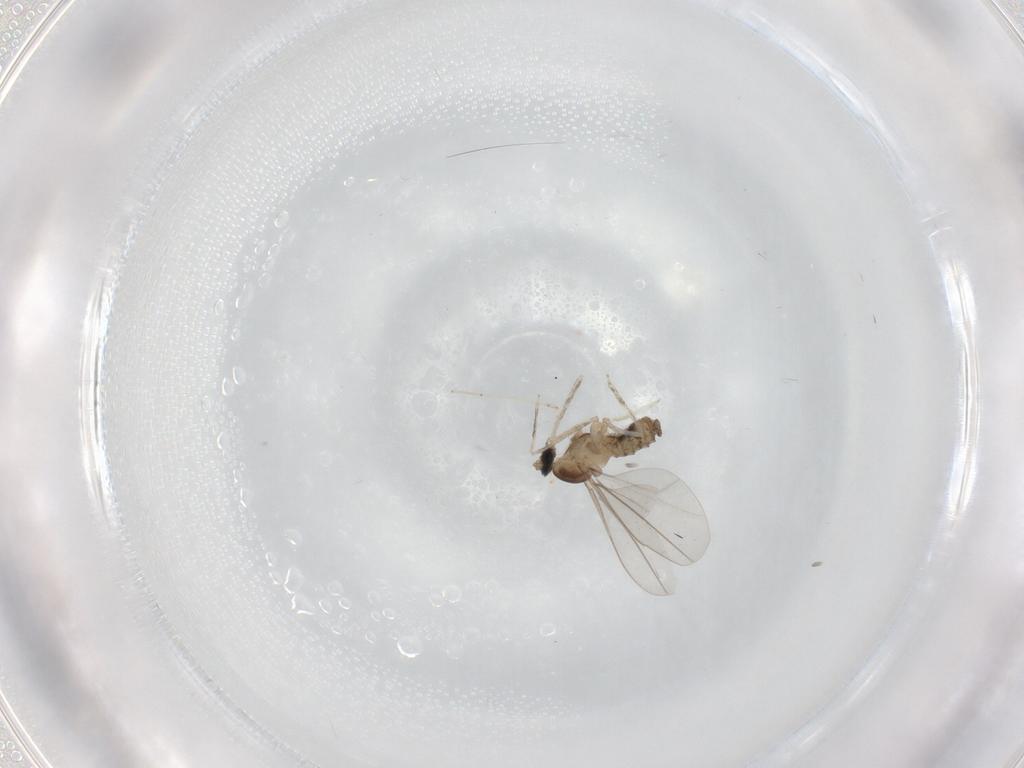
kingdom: Animalia
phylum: Arthropoda
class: Insecta
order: Diptera
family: Cecidomyiidae
